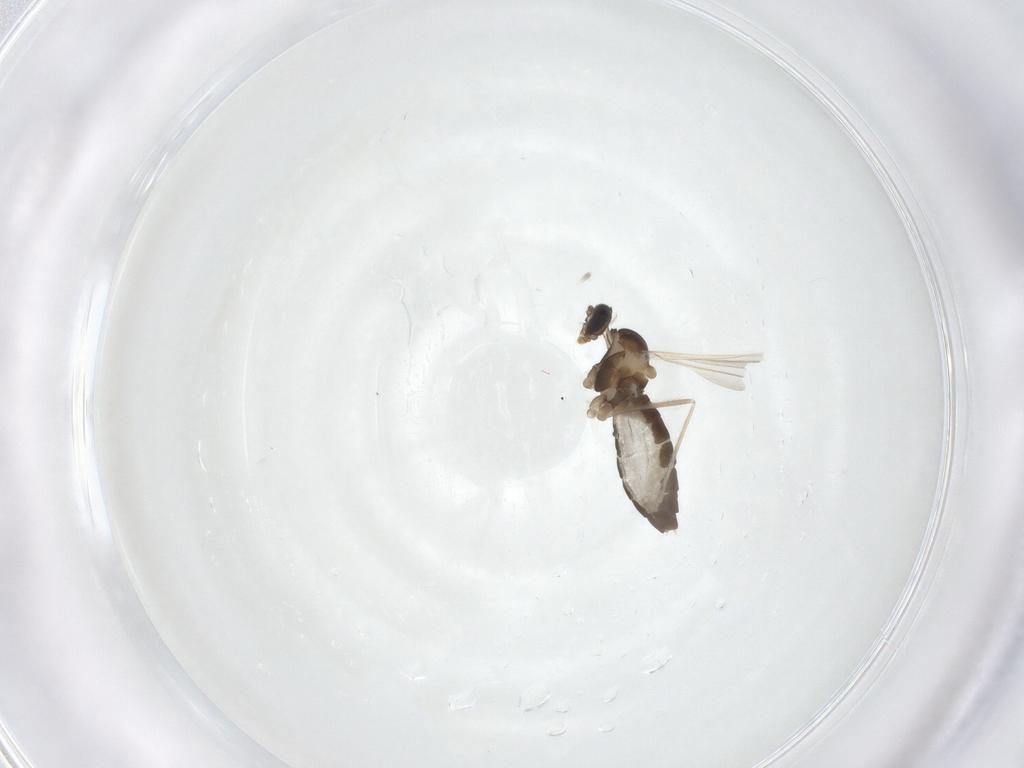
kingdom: Animalia
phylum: Arthropoda
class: Insecta
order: Diptera
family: Cecidomyiidae
